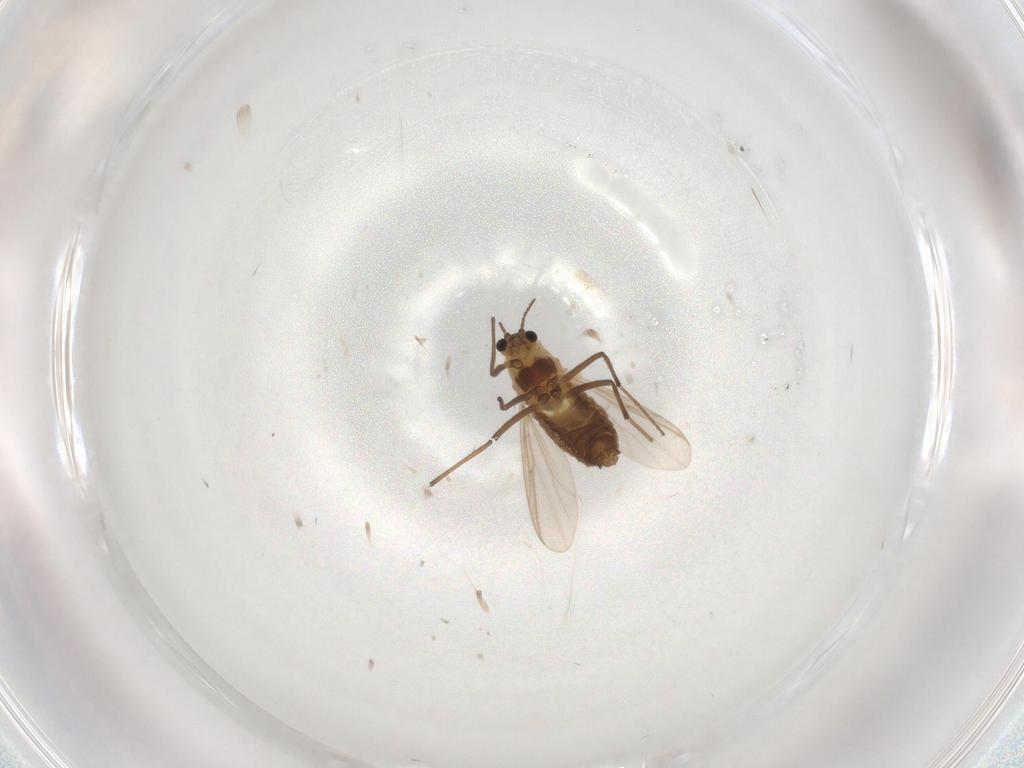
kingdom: Animalia
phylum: Arthropoda
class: Insecta
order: Diptera
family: Chironomidae
